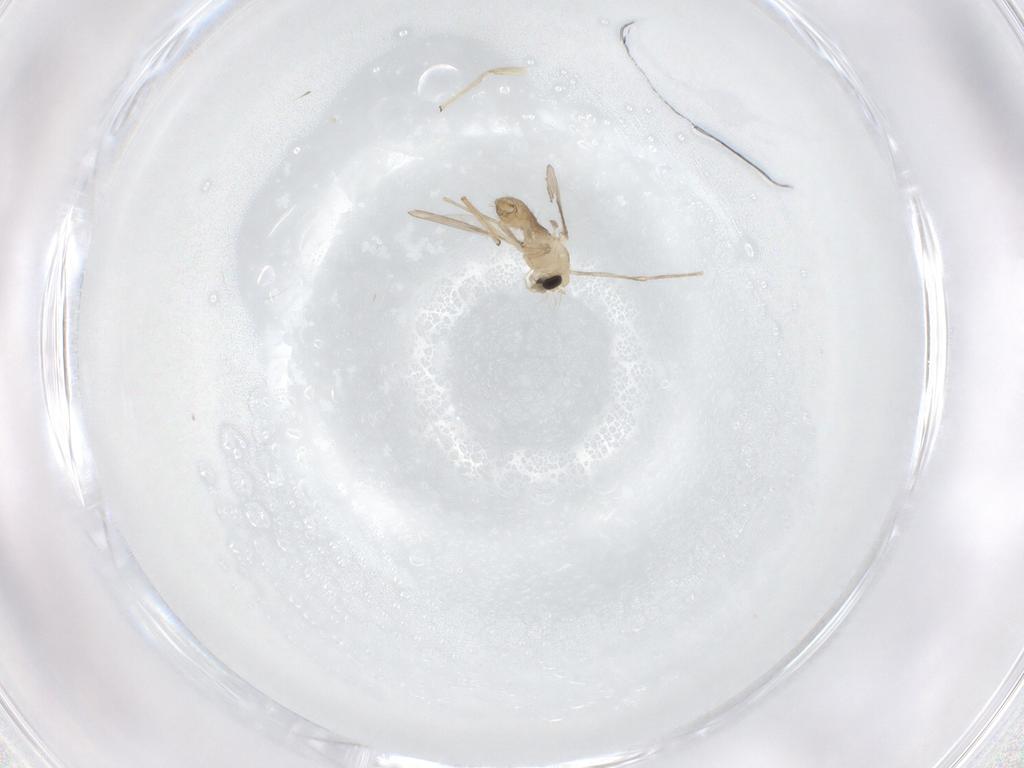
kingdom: Animalia
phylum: Arthropoda
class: Insecta
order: Diptera
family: Chironomidae
